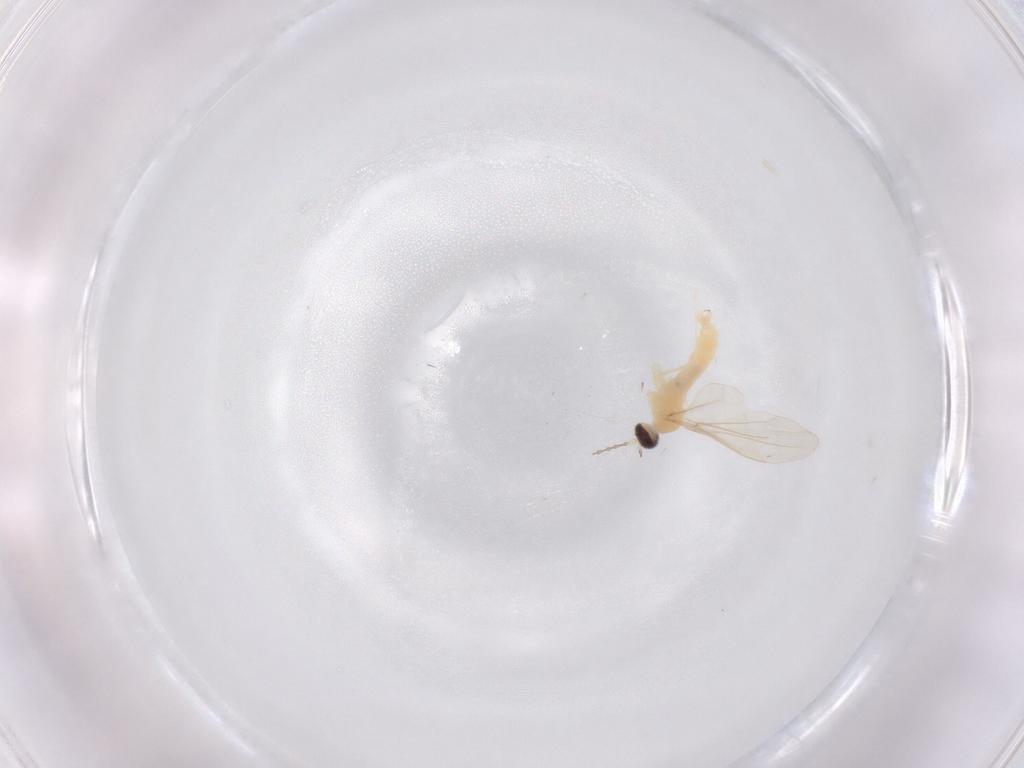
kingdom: Animalia
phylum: Arthropoda
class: Insecta
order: Diptera
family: Cecidomyiidae
